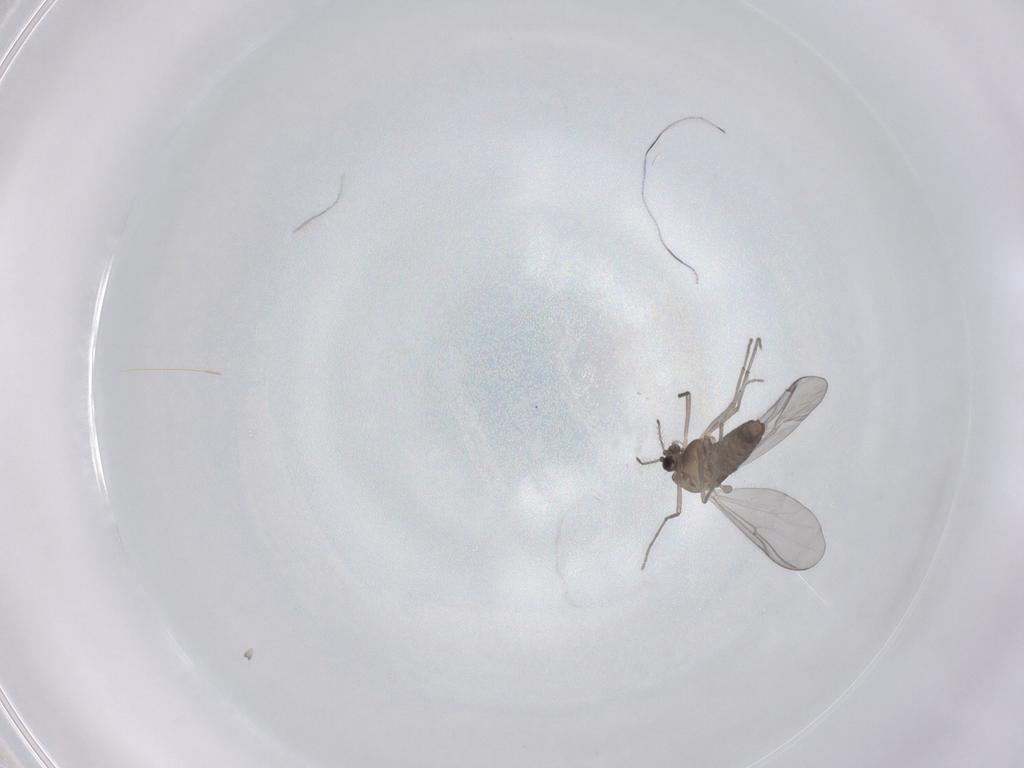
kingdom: Animalia
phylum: Arthropoda
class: Insecta
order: Diptera
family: Chironomidae
